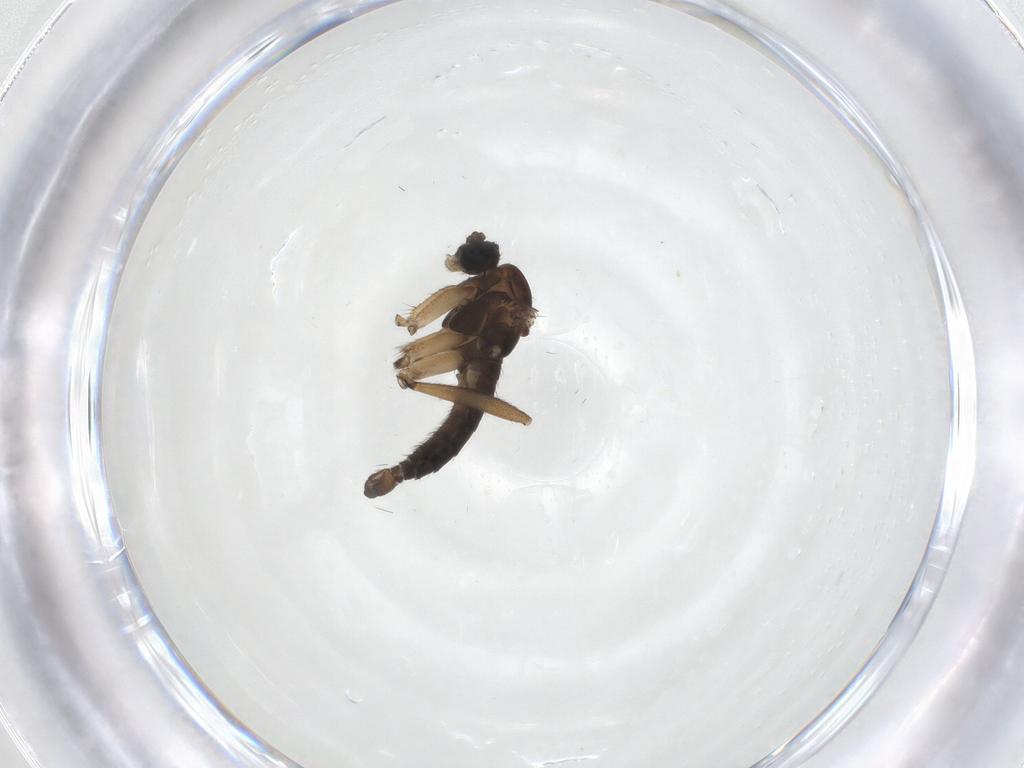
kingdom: Animalia
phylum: Arthropoda
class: Insecta
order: Diptera
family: Sciaridae
